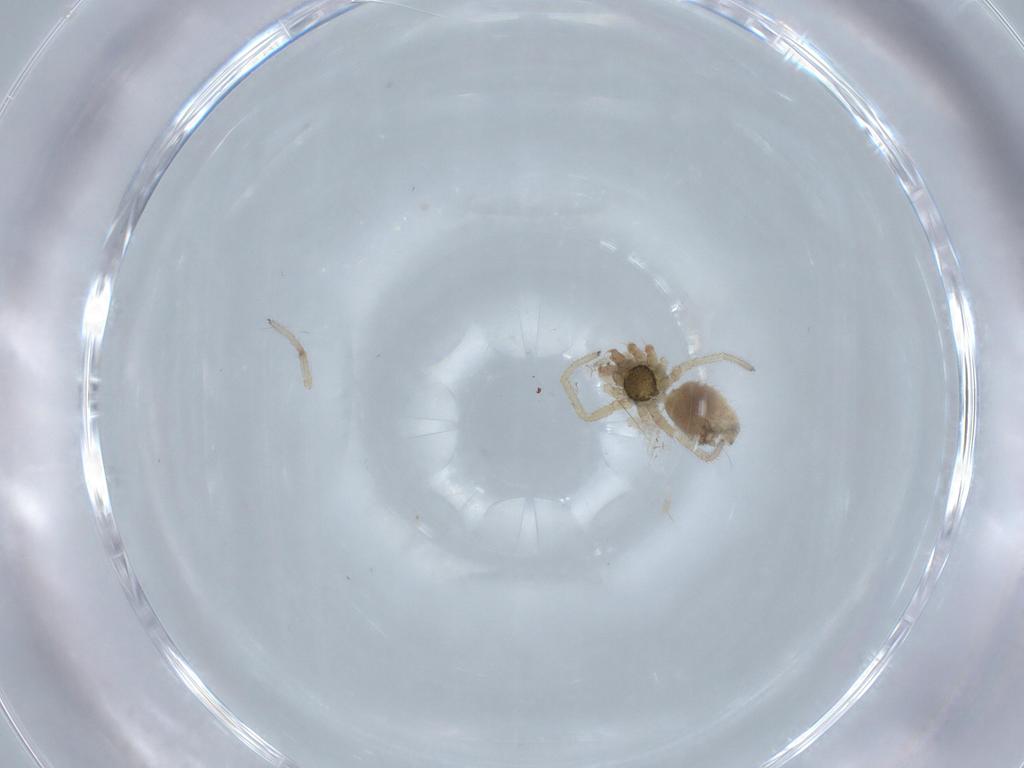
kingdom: Animalia
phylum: Arthropoda
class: Arachnida
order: Araneae
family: Linyphiidae
